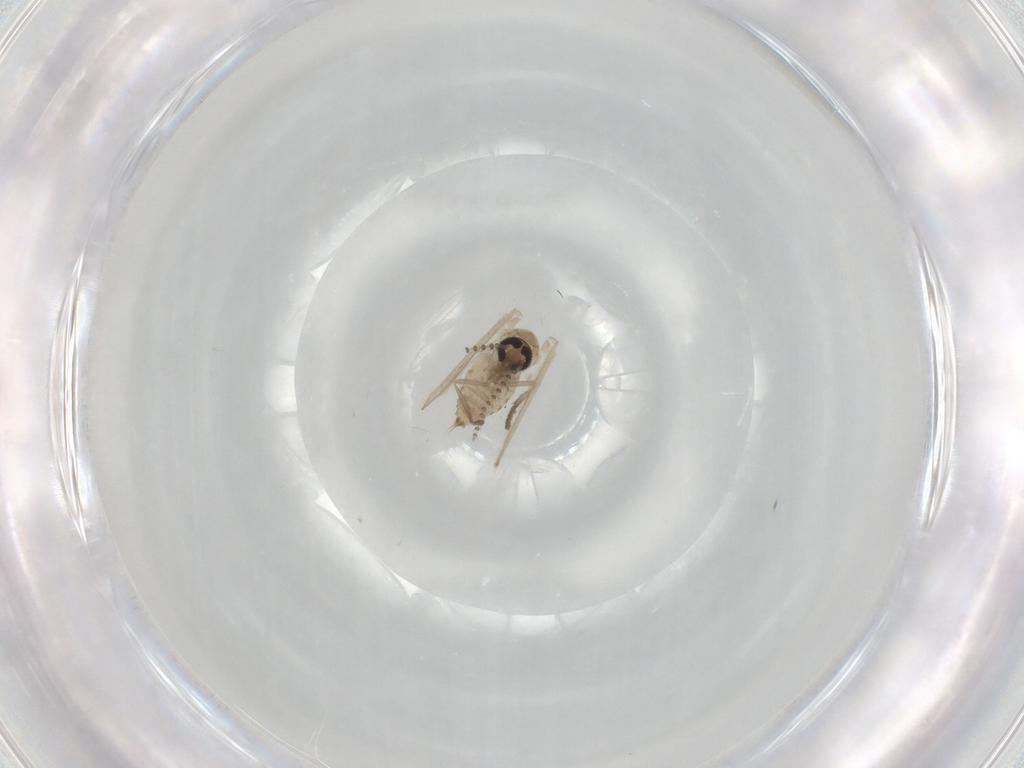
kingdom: Animalia
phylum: Arthropoda
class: Insecta
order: Diptera
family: Psychodidae
